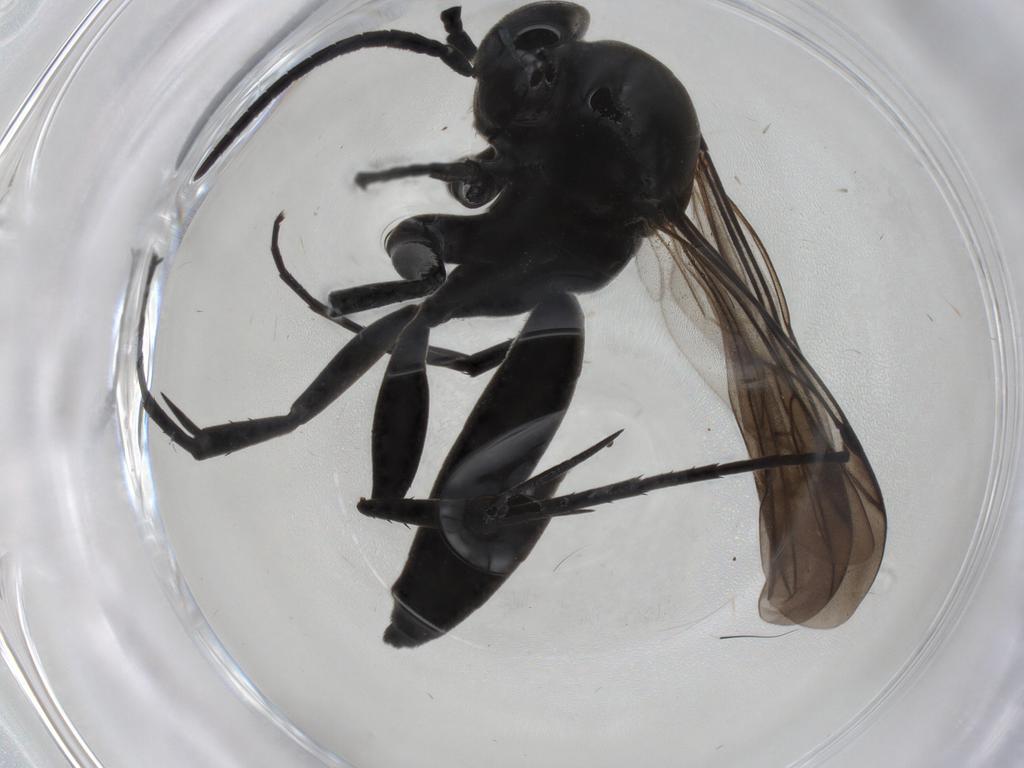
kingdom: Animalia
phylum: Arthropoda
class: Insecta
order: Hymenoptera
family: Pompilidae
